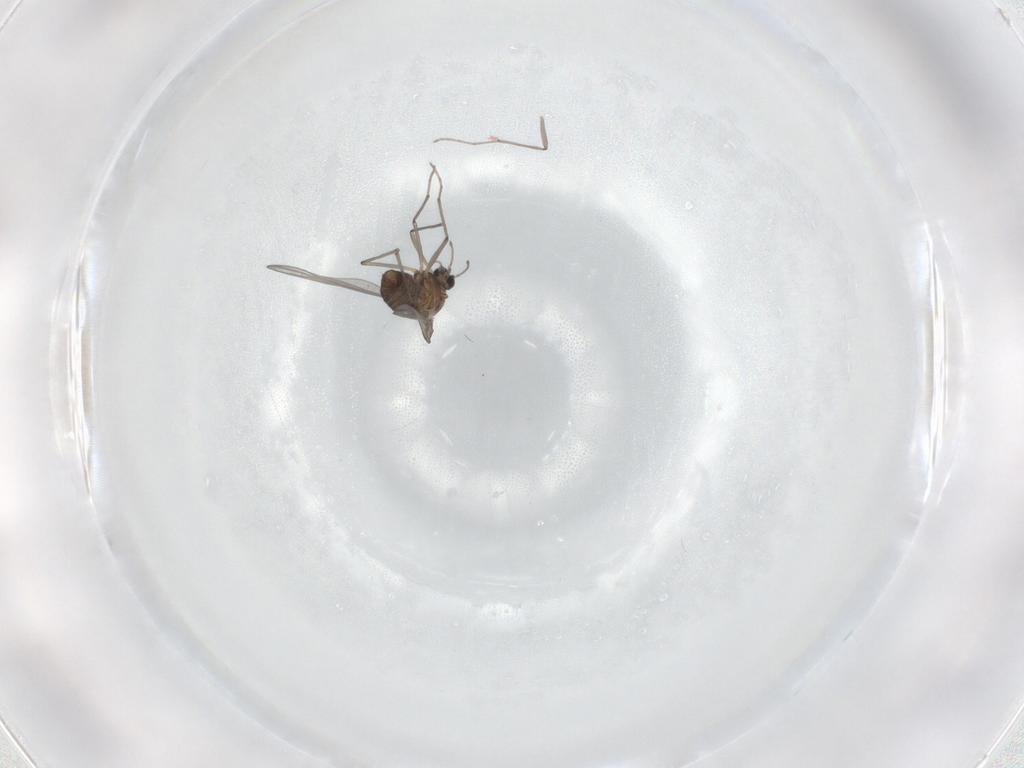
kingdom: Animalia
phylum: Arthropoda
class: Insecta
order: Diptera
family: Chironomidae
